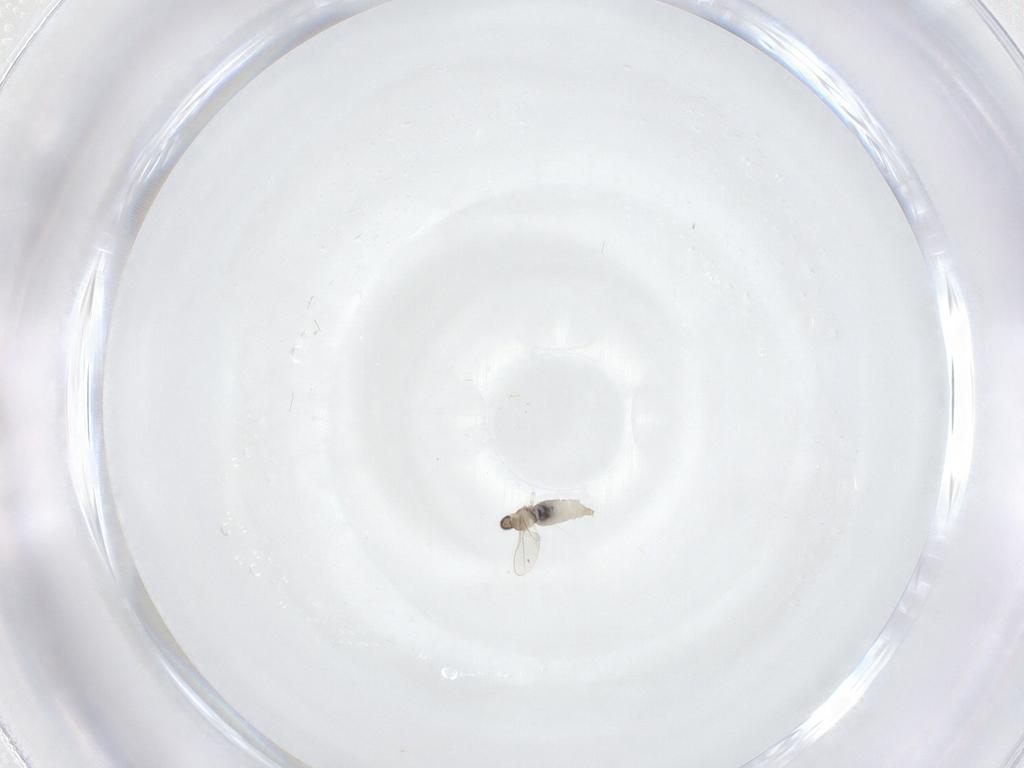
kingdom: Animalia
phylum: Arthropoda
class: Insecta
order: Diptera
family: Cecidomyiidae
